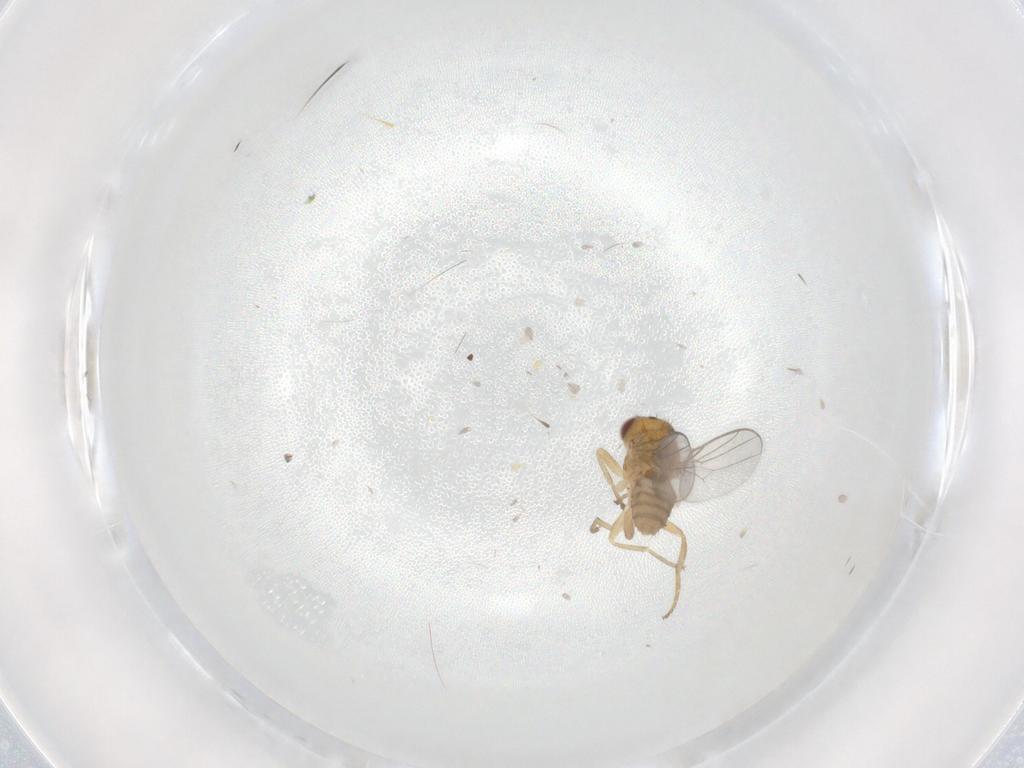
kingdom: Animalia
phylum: Arthropoda
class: Insecta
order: Diptera
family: Chloropidae
